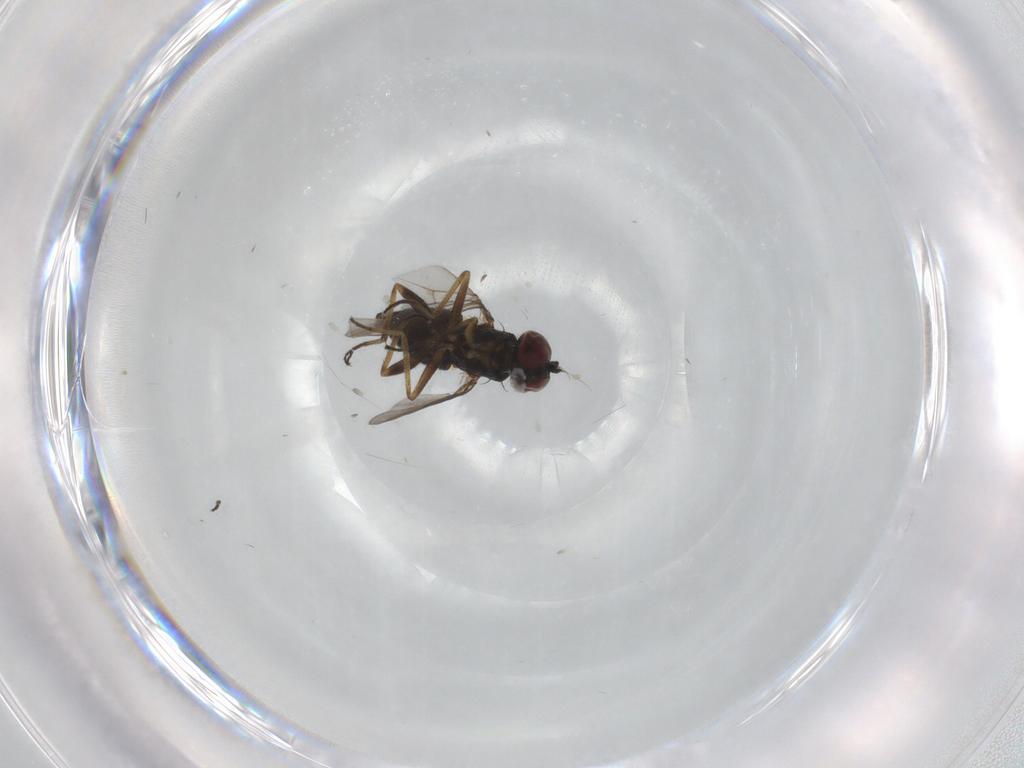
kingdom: Animalia
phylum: Arthropoda
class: Insecta
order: Diptera
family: Dolichopodidae
